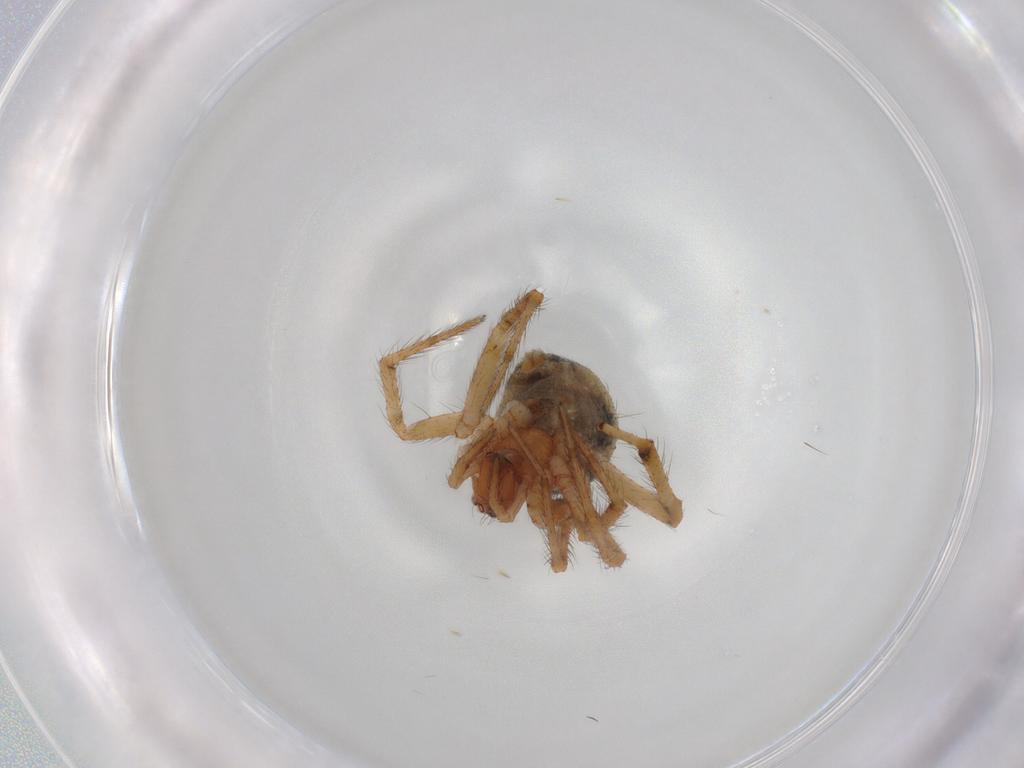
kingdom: Animalia
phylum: Arthropoda
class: Arachnida
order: Araneae
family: Theridiidae
